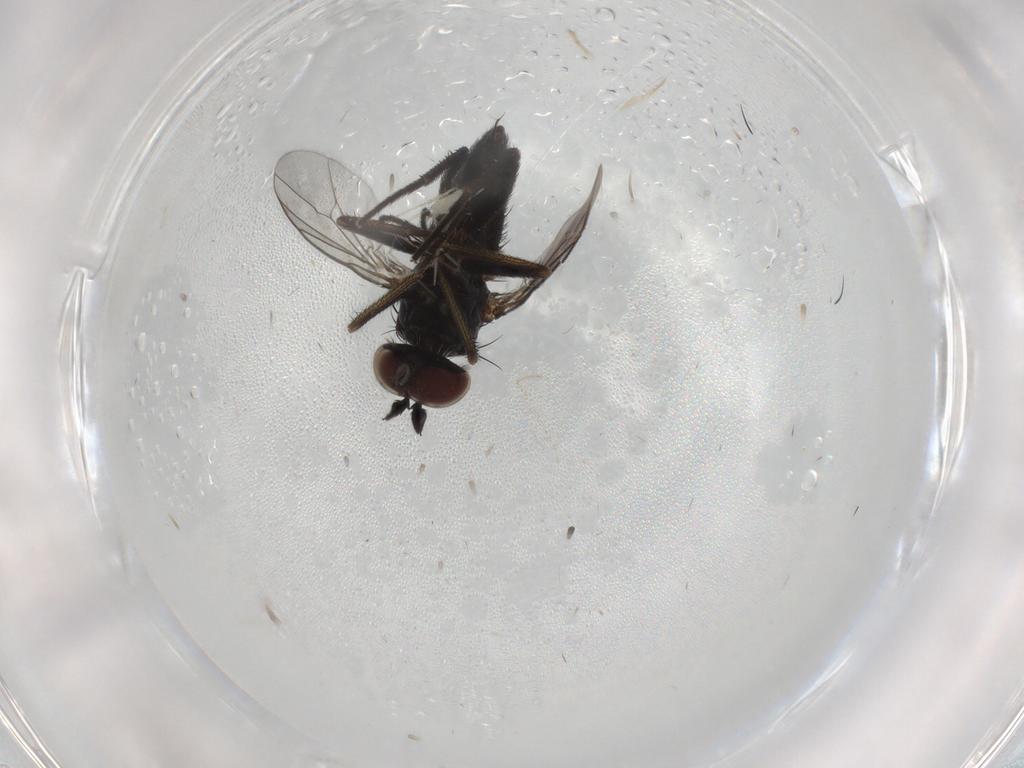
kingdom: Animalia
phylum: Arthropoda
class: Insecta
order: Diptera
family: Dolichopodidae
